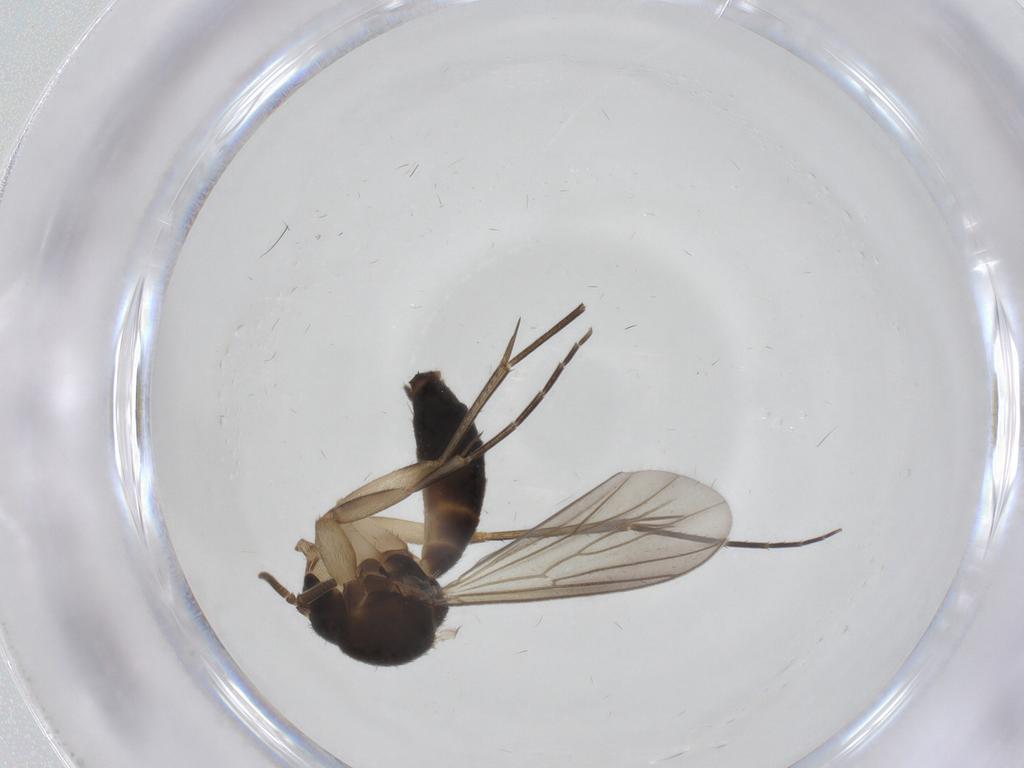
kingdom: Animalia
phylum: Arthropoda
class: Insecta
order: Diptera
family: Mycetophilidae
